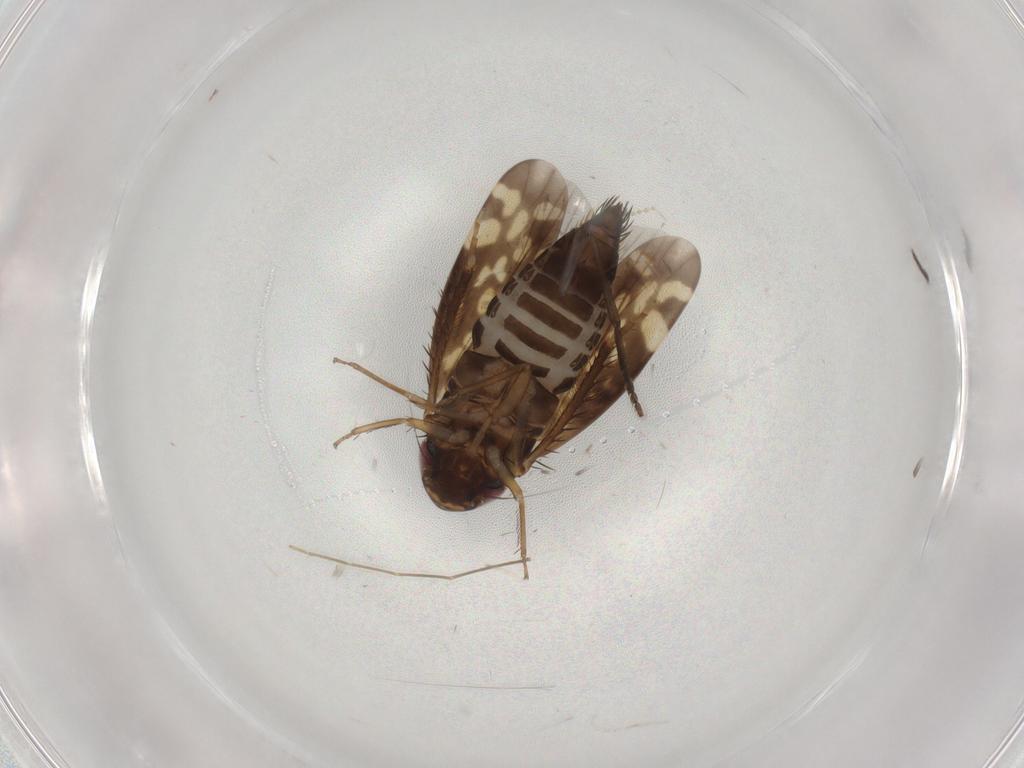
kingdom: Animalia
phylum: Arthropoda
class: Insecta
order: Hemiptera
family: Cicadellidae
